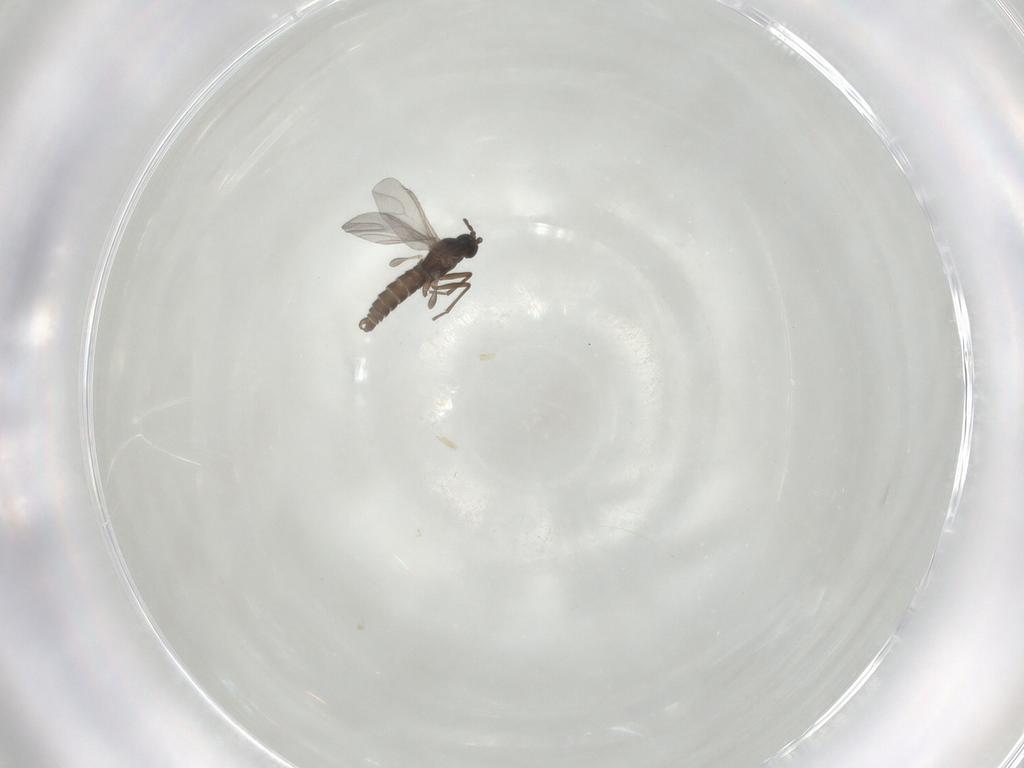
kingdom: Animalia
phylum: Arthropoda
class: Insecta
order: Diptera
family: Sciaridae
